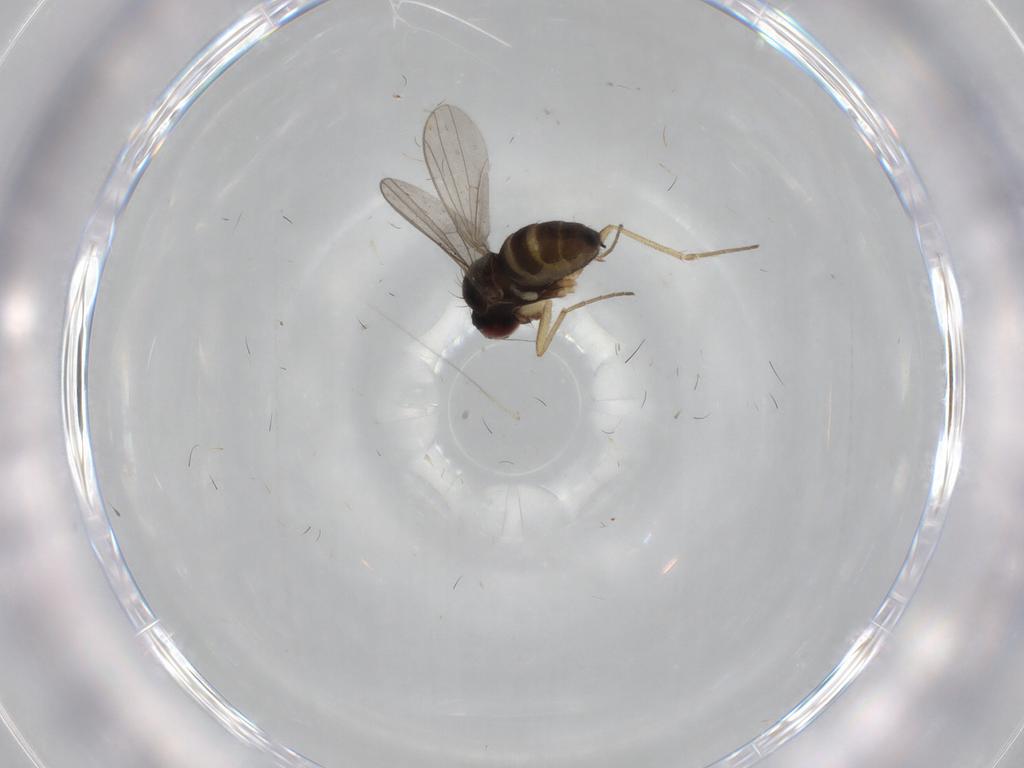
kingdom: Animalia
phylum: Arthropoda
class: Insecta
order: Diptera
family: Dolichopodidae
